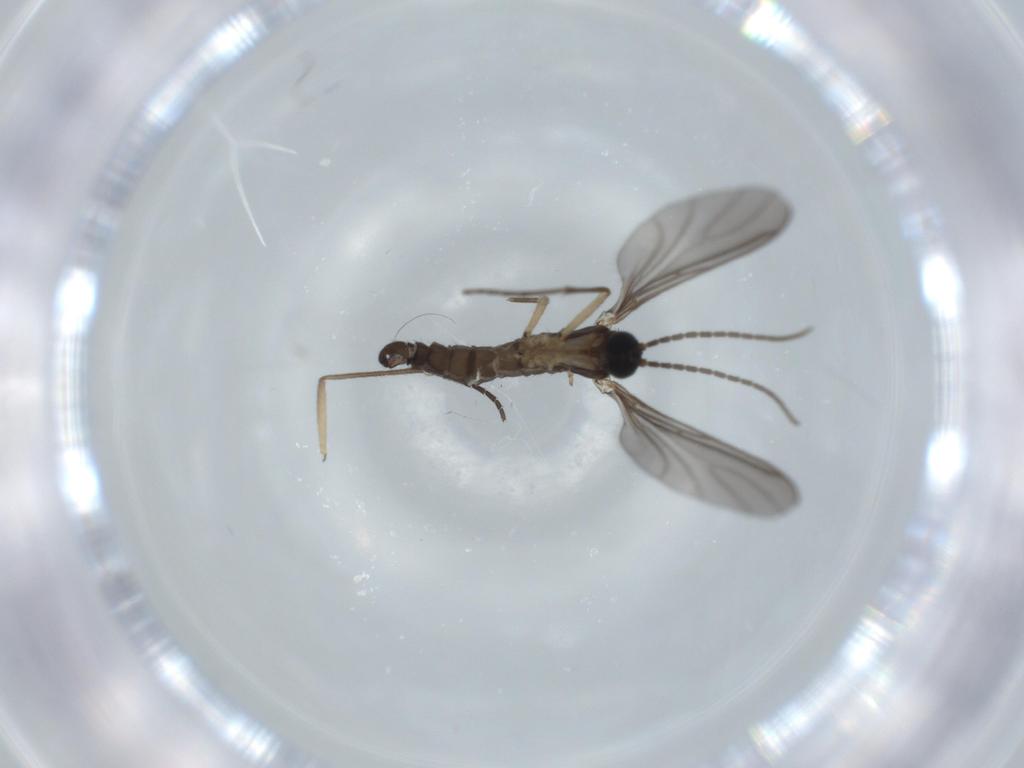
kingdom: Animalia
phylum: Arthropoda
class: Insecta
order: Diptera
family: Sciaridae
